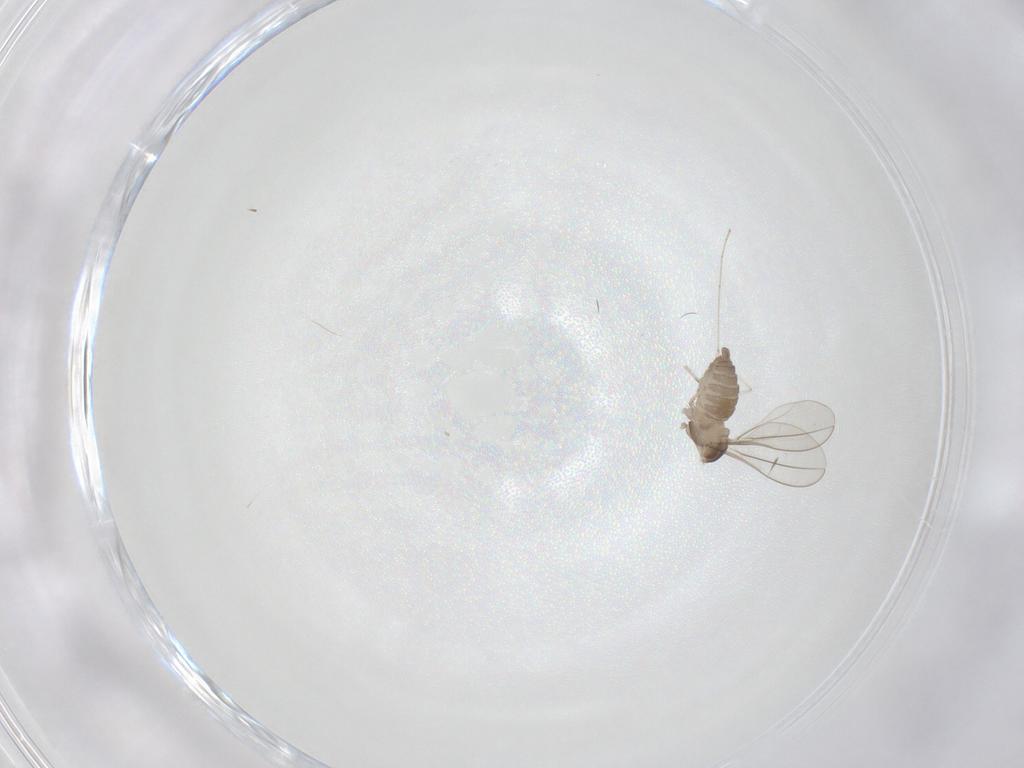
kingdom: Animalia
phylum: Arthropoda
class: Insecta
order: Diptera
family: Cecidomyiidae
